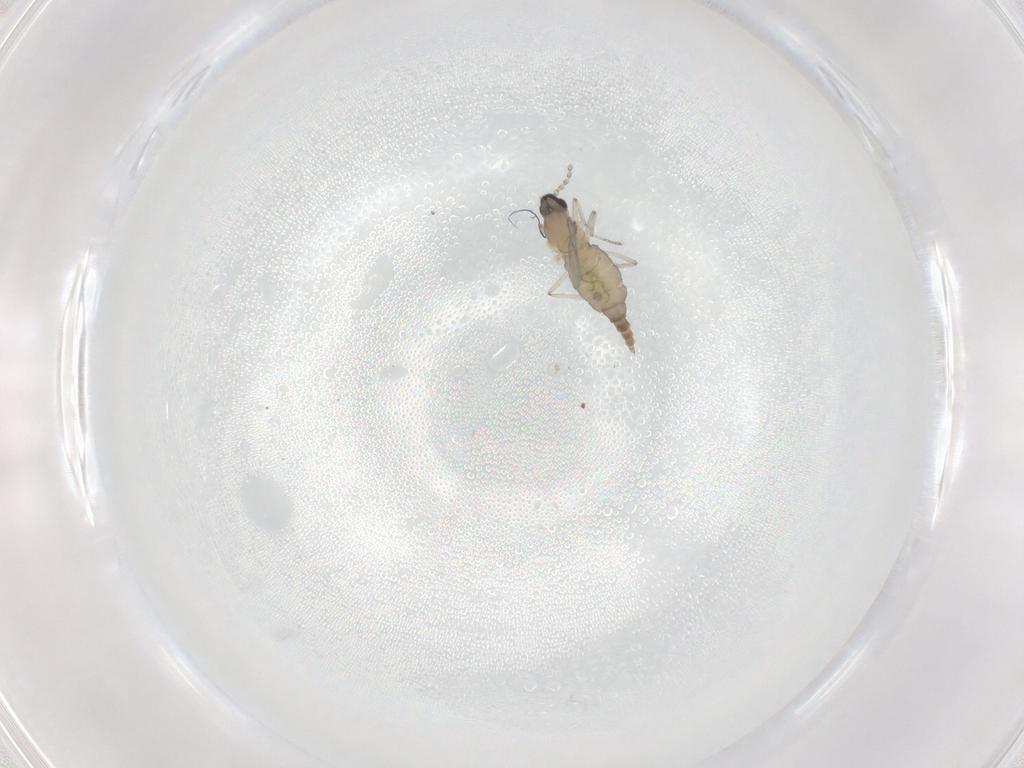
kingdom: Animalia
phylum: Arthropoda
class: Insecta
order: Diptera
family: Cecidomyiidae
